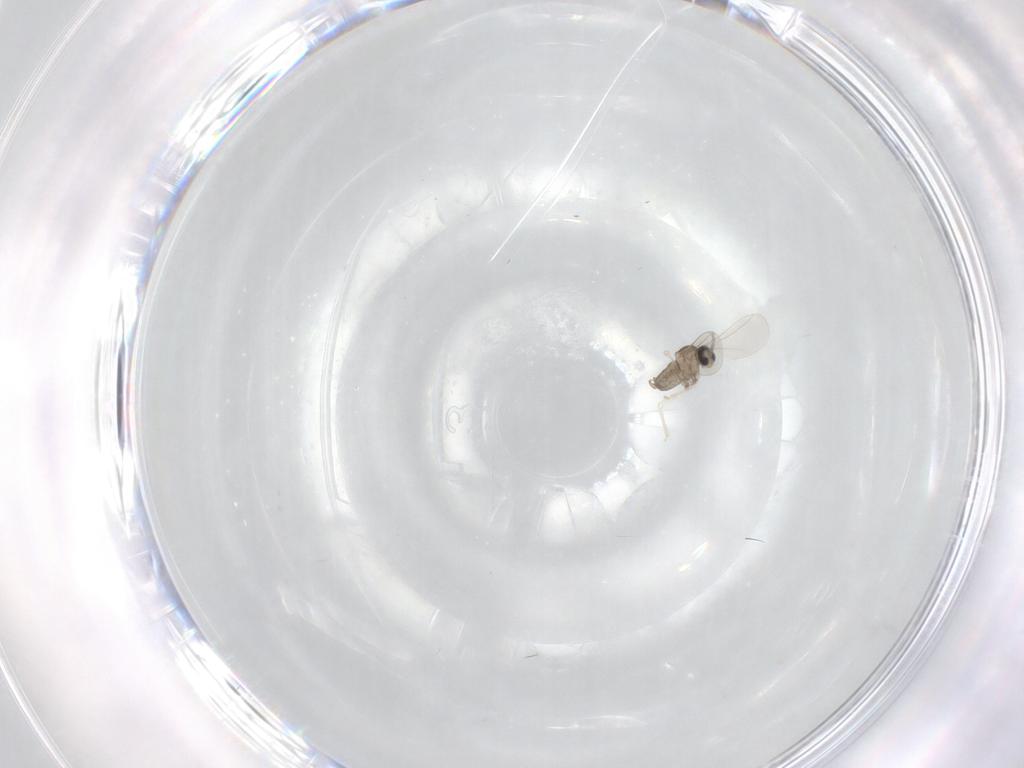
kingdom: Animalia
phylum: Arthropoda
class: Insecta
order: Diptera
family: Cecidomyiidae
